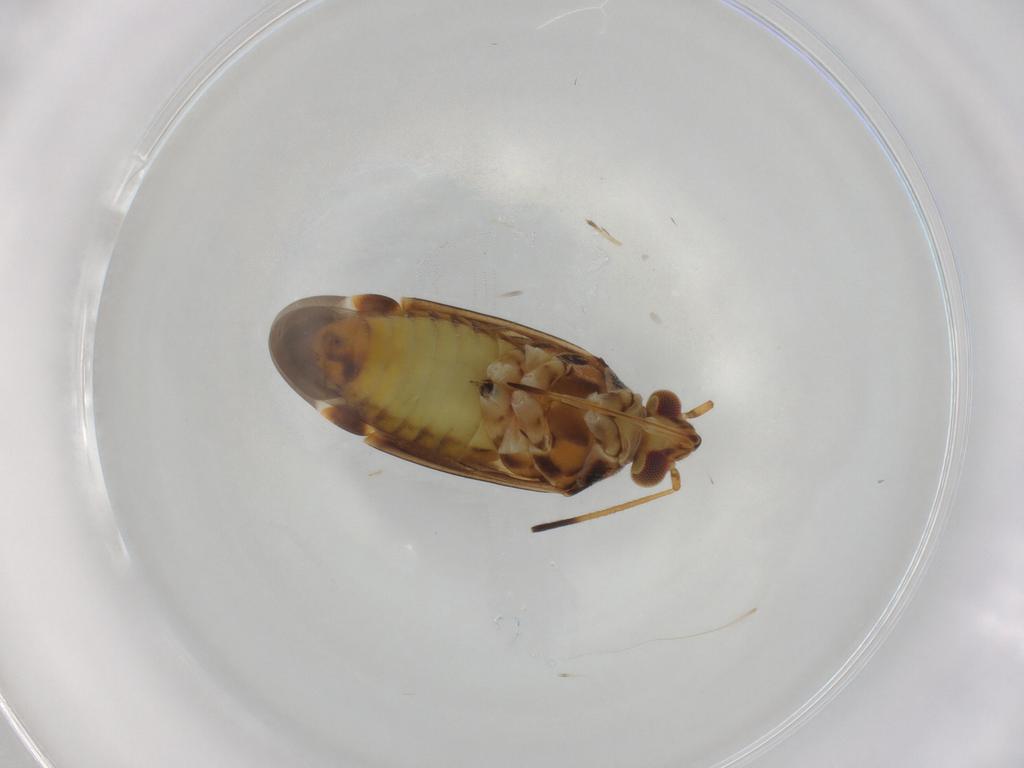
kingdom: Animalia
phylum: Arthropoda
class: Insecta
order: Hemiptera
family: Miridae
